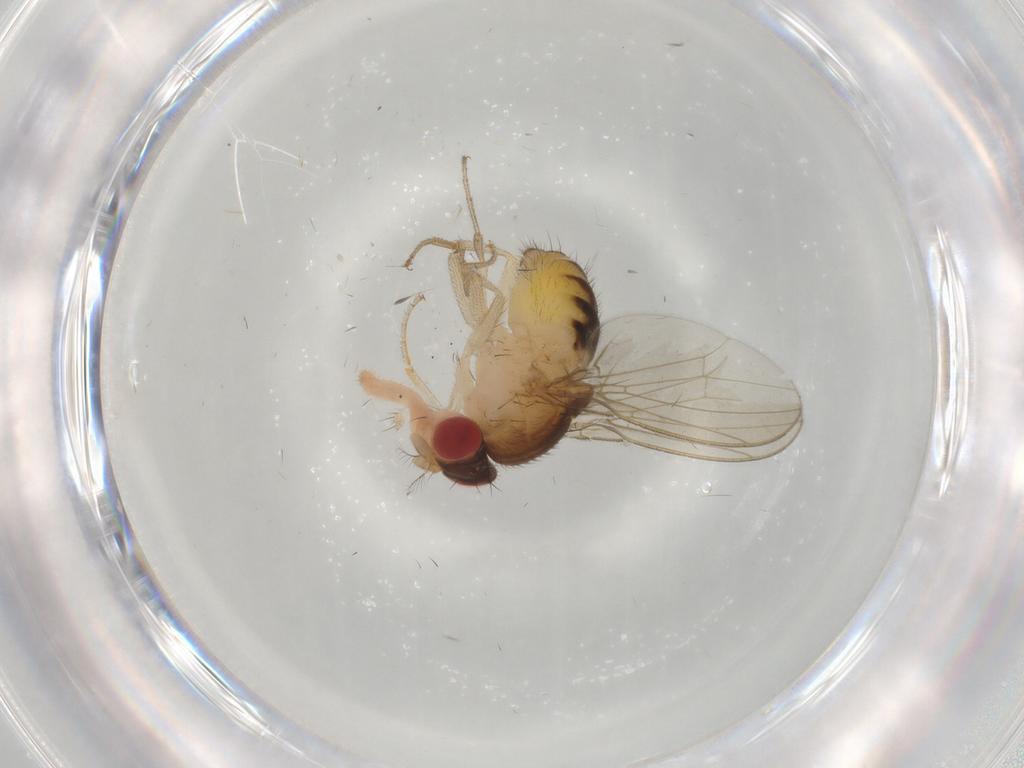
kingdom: Animalia
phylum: Arthropoda
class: Insecta
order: Diptera
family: Drosophilidae
